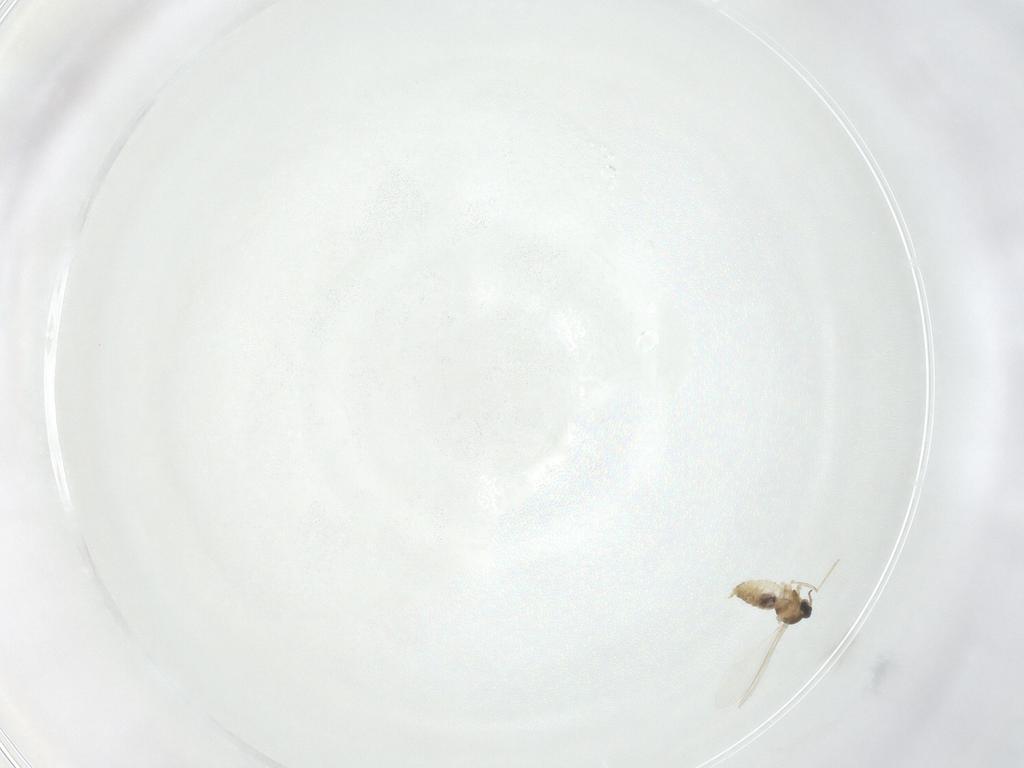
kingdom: Animalia
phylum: Arthropoda
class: Insecta
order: Diptera
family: Cecidomyiidae
